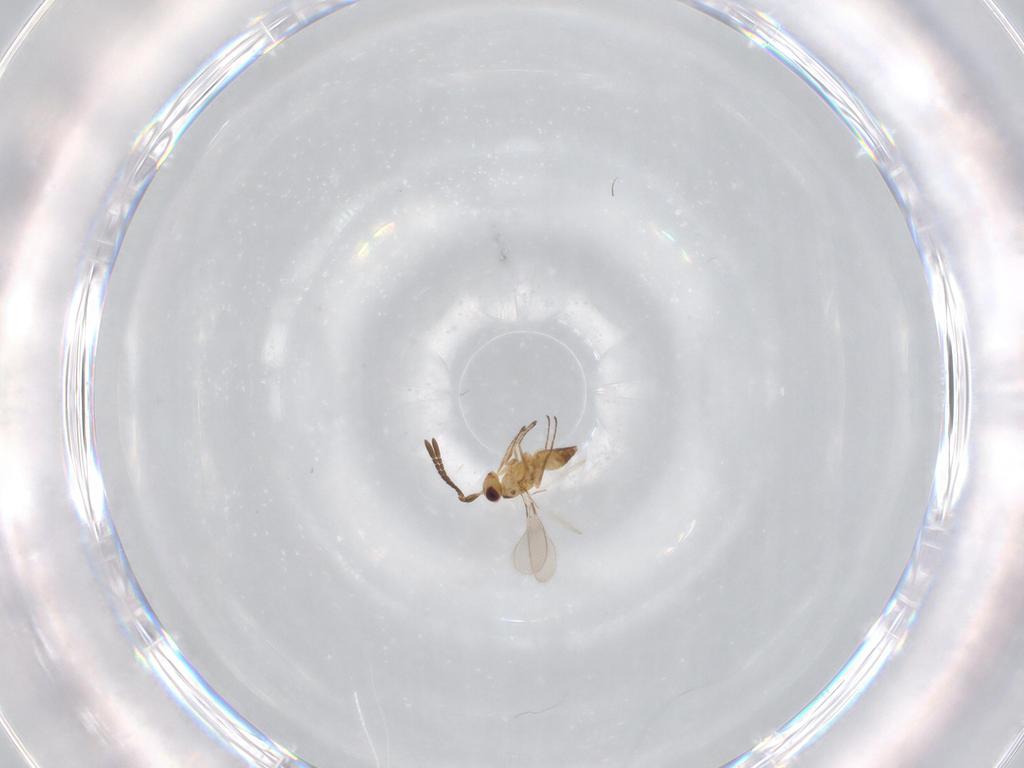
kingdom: Animalia
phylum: Arthropoda
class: Insecta
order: Hymenoptera
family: Mymaridae
